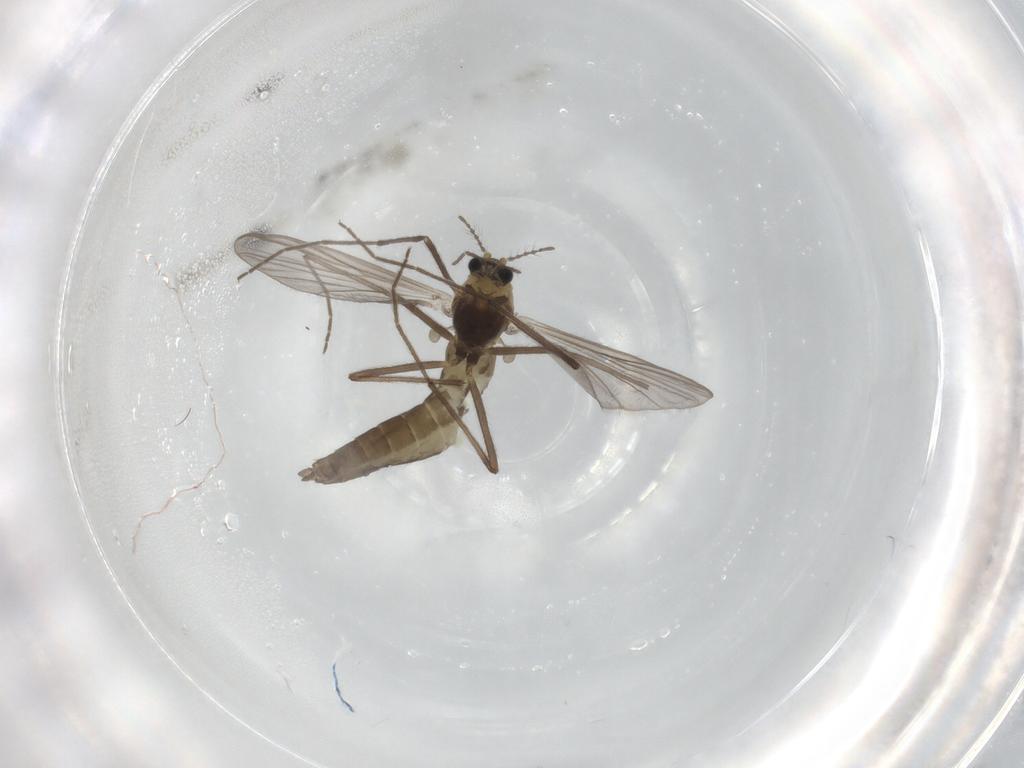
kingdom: Animalia
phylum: Arthropoda
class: Insecta
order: Diptera
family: Chironomidae
